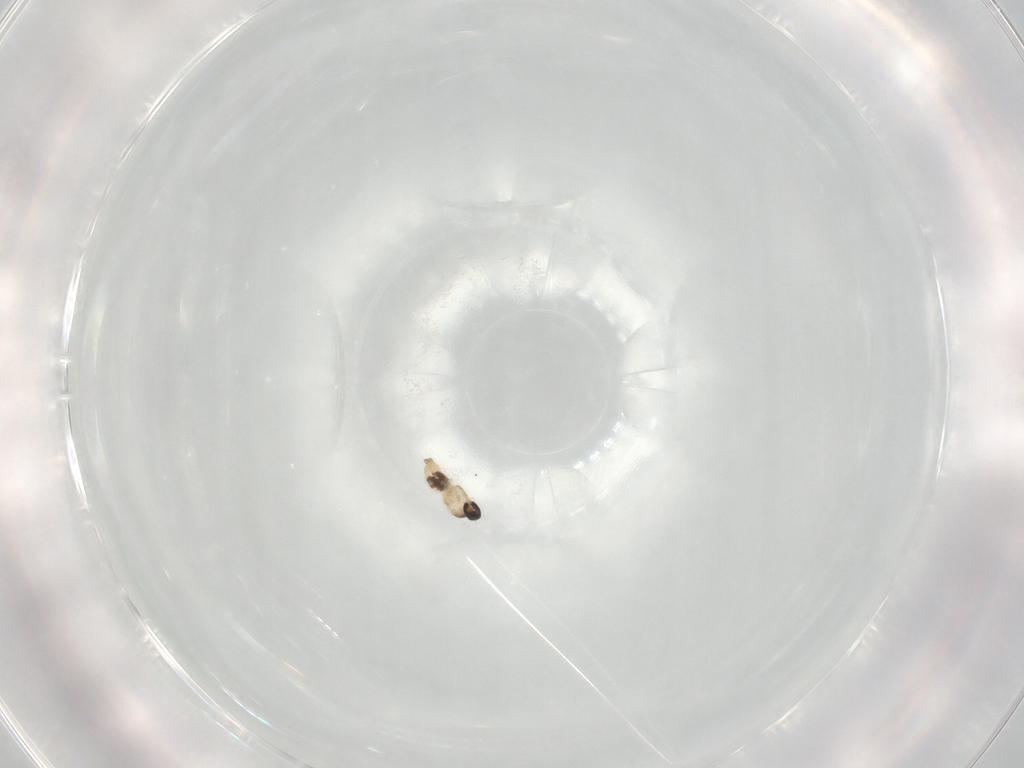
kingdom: Animalia
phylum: Arthropoda
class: Insecta
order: Diptera
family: Cecidomyiidae
